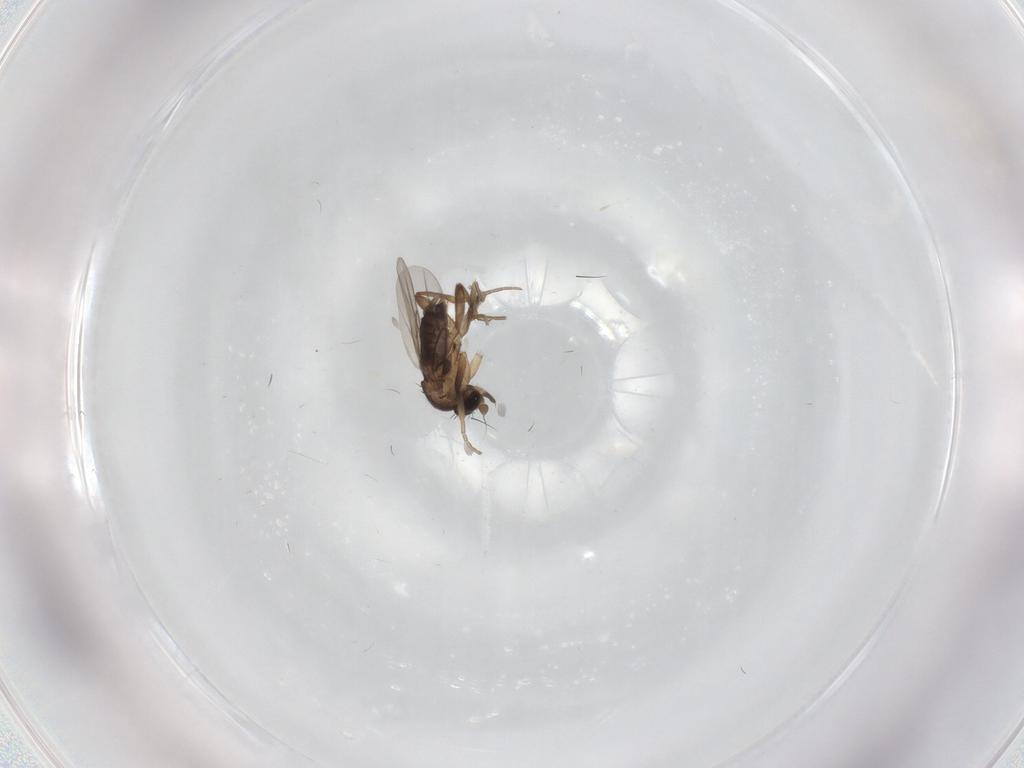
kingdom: Animalia
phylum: Arthropoda
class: Insecta
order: Diptera
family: Phoridae
